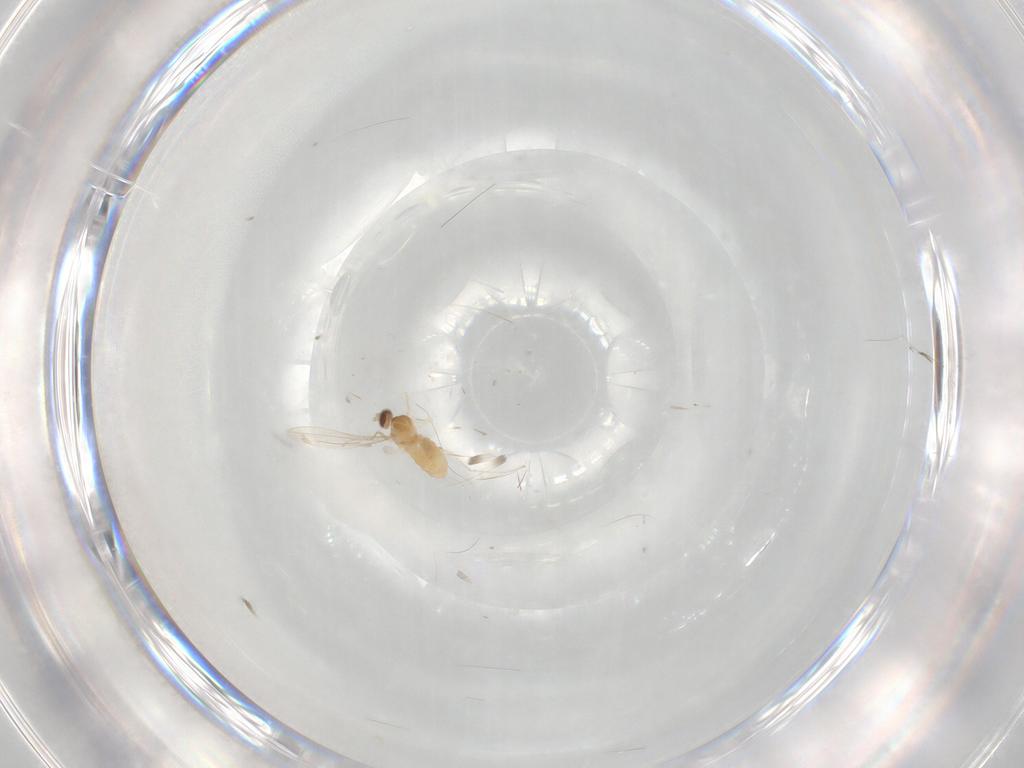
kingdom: Animalia
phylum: Arthropoda
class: Insecta
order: Diptera
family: Cecidomyiidae
